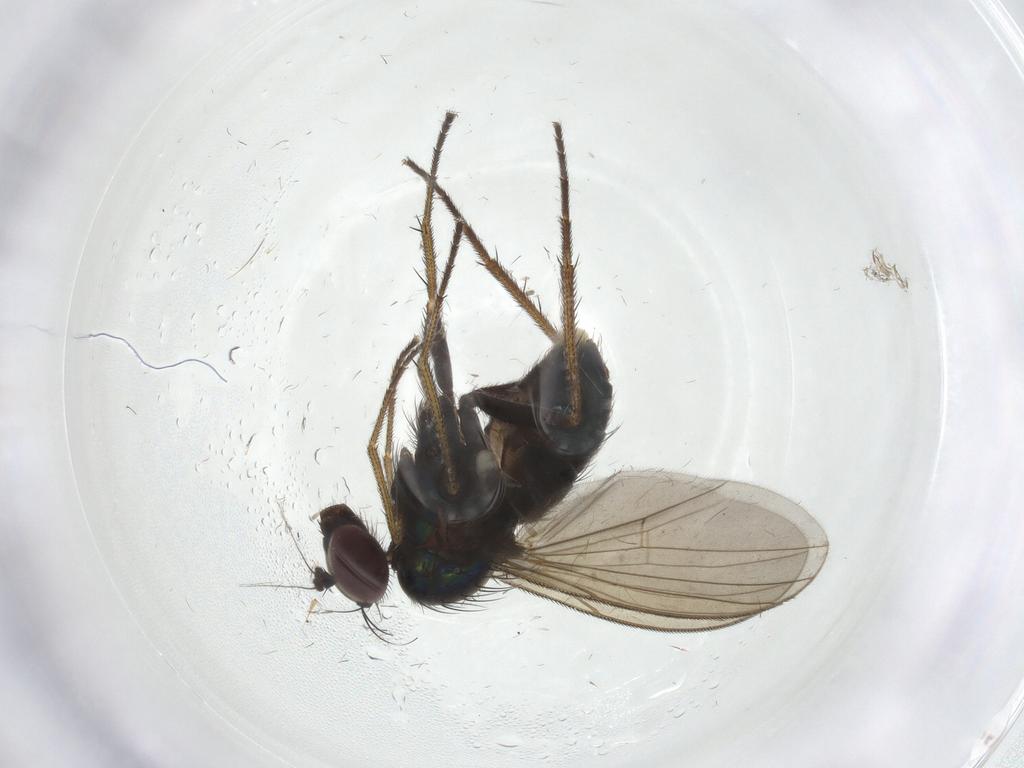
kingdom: Animalia
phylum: Arthropoda
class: Insecta
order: Diptera
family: Dolichopodidae
